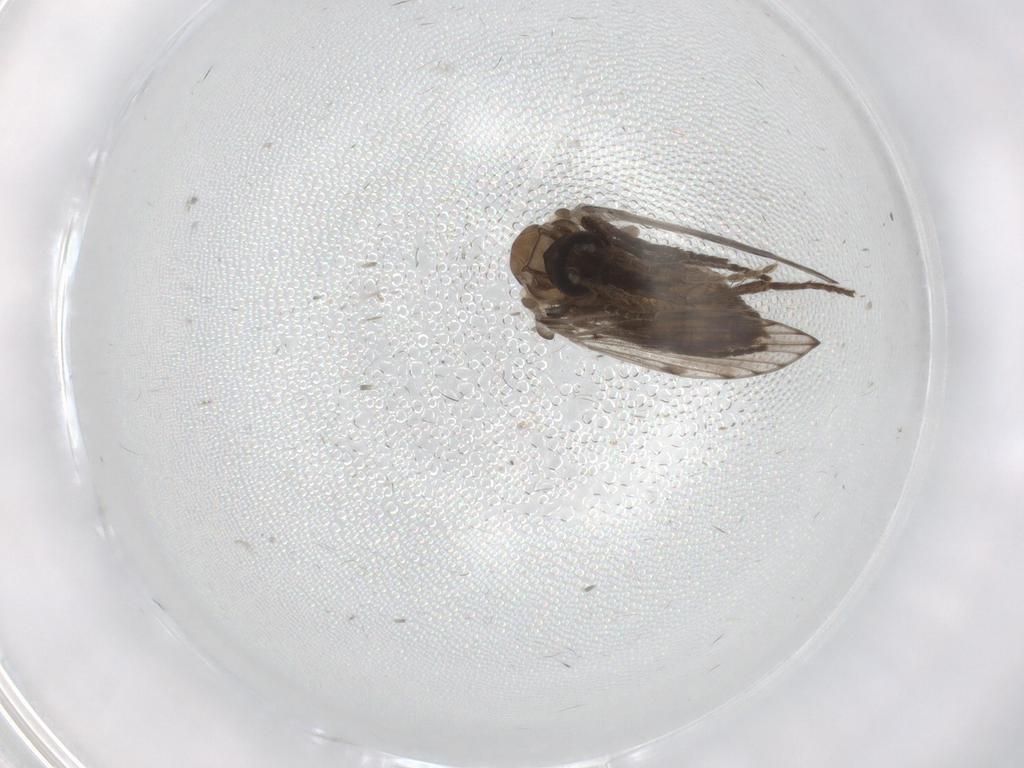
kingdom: Animalia
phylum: Arthropoda
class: Insecta
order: Diptera
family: Psychodidae
